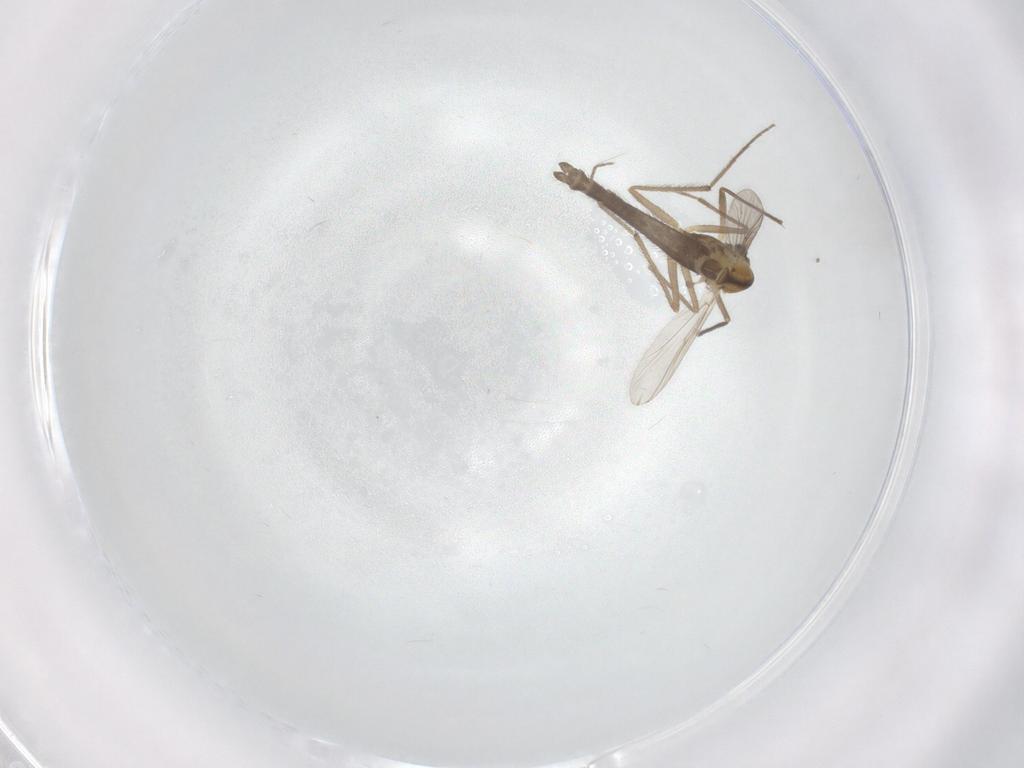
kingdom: Animalia
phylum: Arthropoda
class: Insecta
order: Diptera
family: Chironomidae
